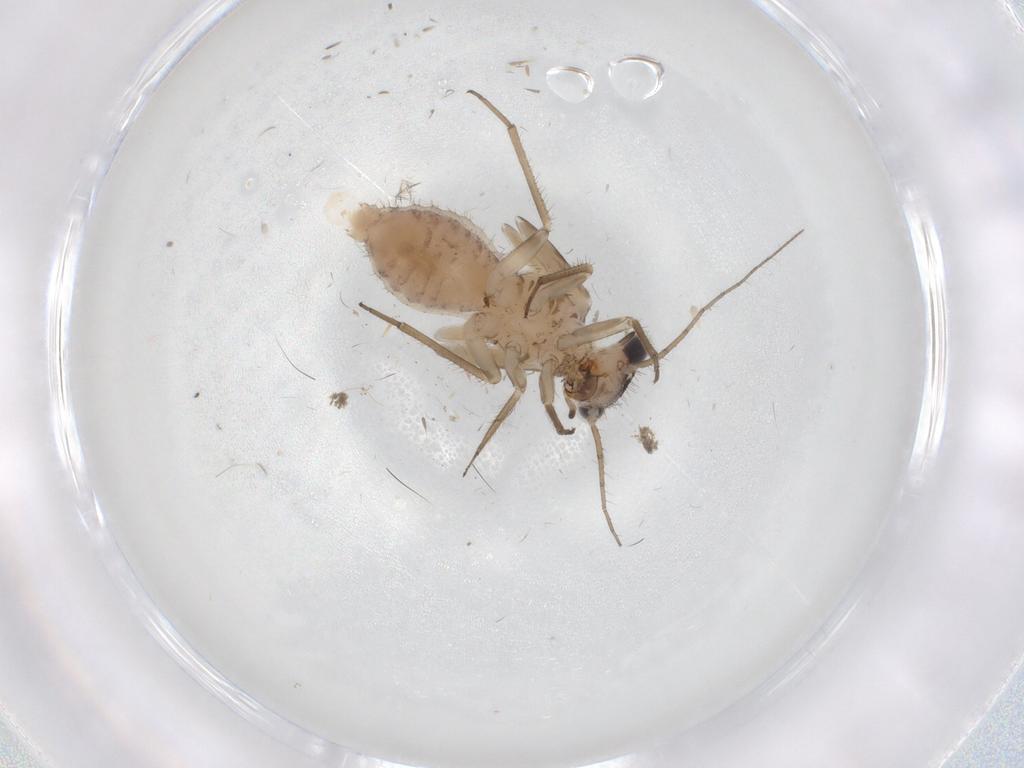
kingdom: Animalia
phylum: Arthropoda
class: Insecta
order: Psocodea
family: Psocidae
